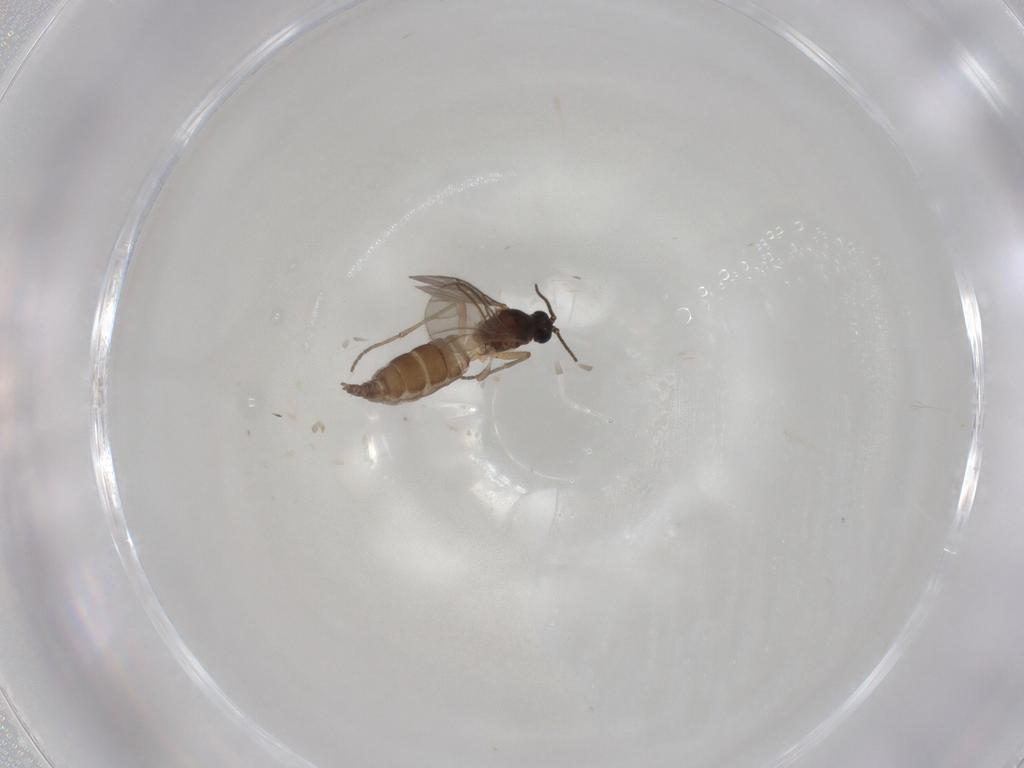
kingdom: Animalia
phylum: Arthropoda
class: Insecta
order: Diptera
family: Sciaridae
